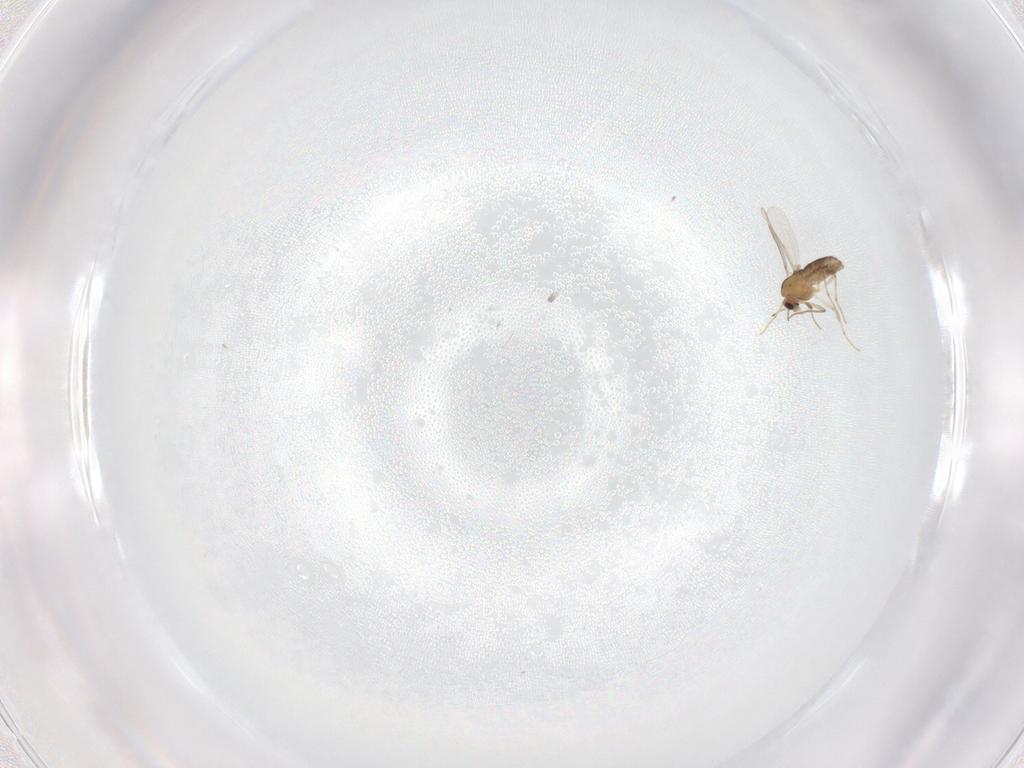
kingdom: Animalia
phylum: Arthropoda
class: Insecta
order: Diptera
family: Chironomidae
